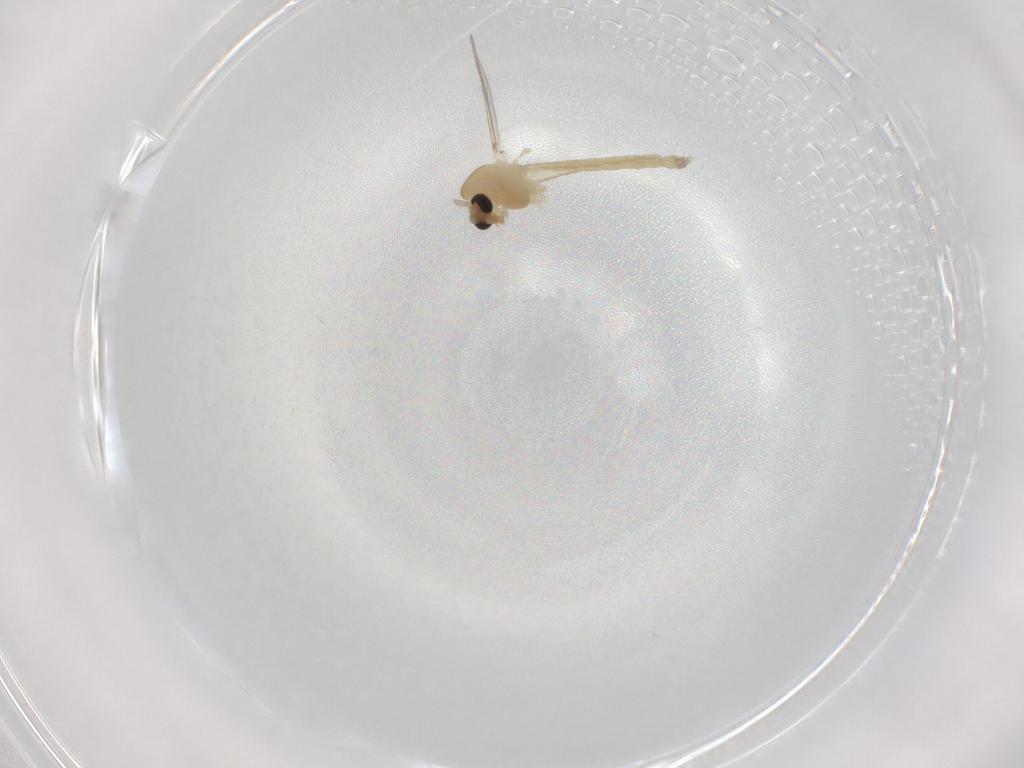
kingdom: Animalia
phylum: Arthropoda
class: Insecta
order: Diptera
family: Chironomidae
